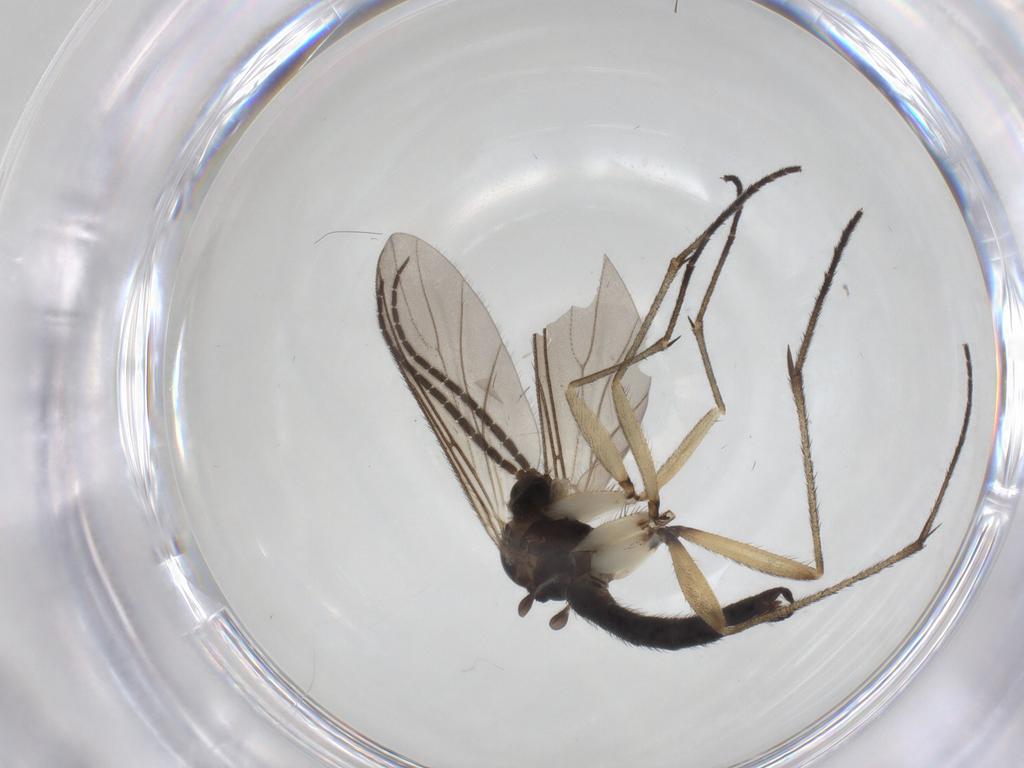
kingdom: Animalia
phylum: Arthropoda
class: Insecta
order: Diptera
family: Sciaridae
